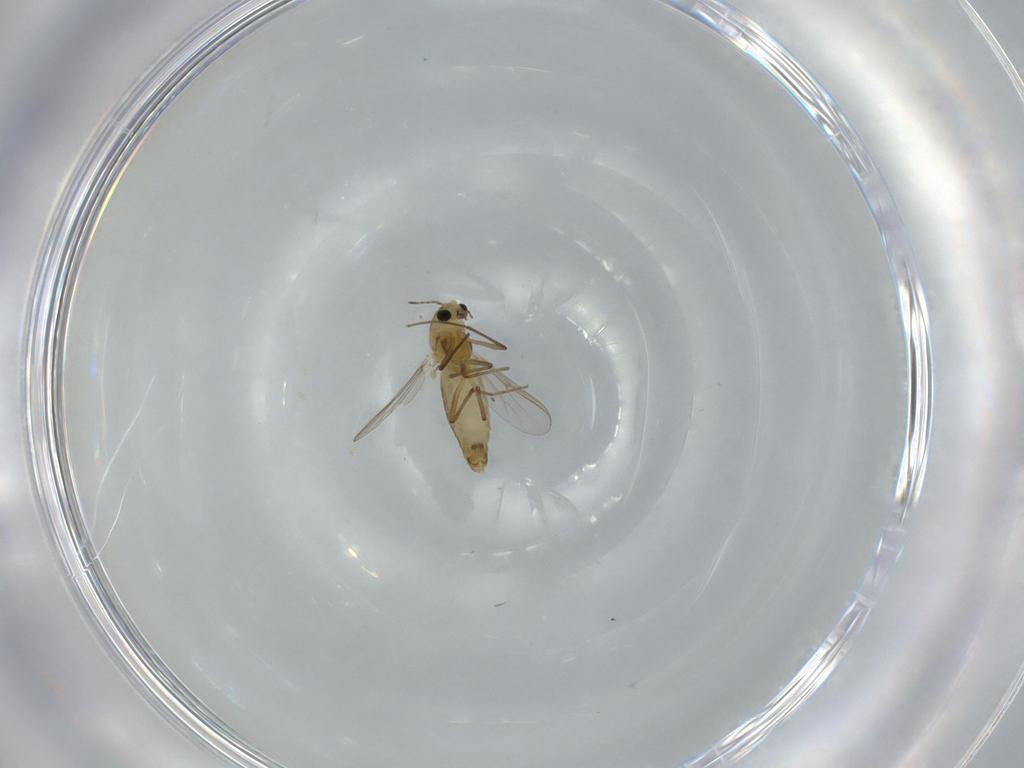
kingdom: Animalia
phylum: Arthropoda
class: Insecta
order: Diptera
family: Chironomidae
